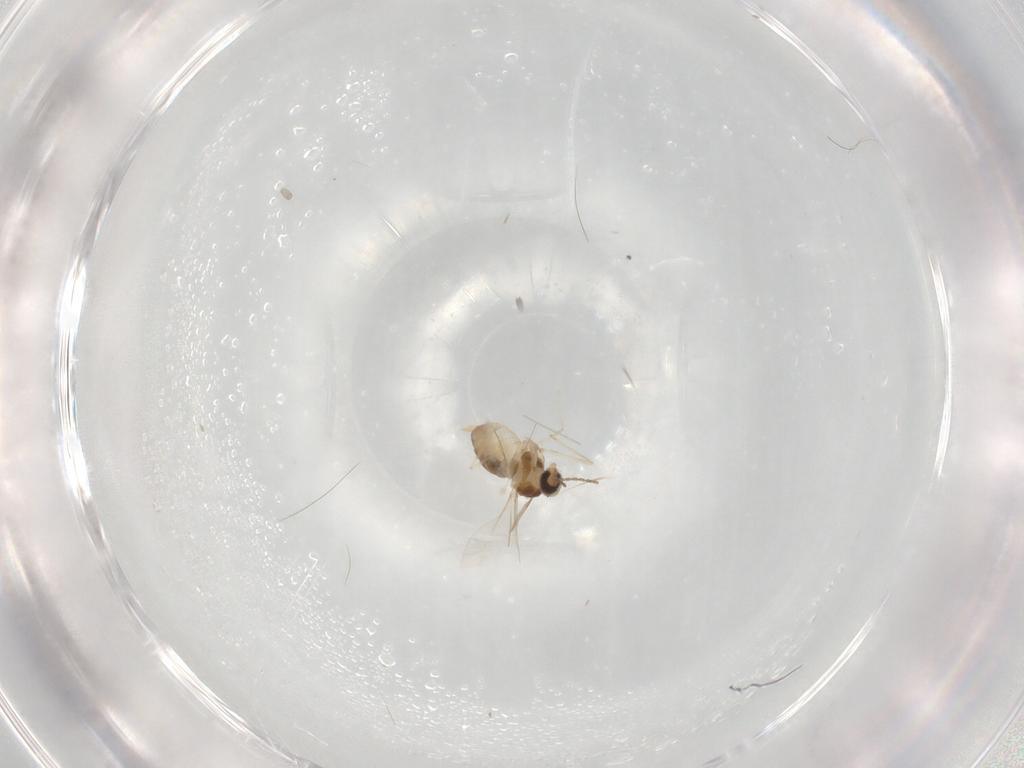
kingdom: Animalia
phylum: Arthropoda
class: Insecta
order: Diptera
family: Cecidomyiidae
